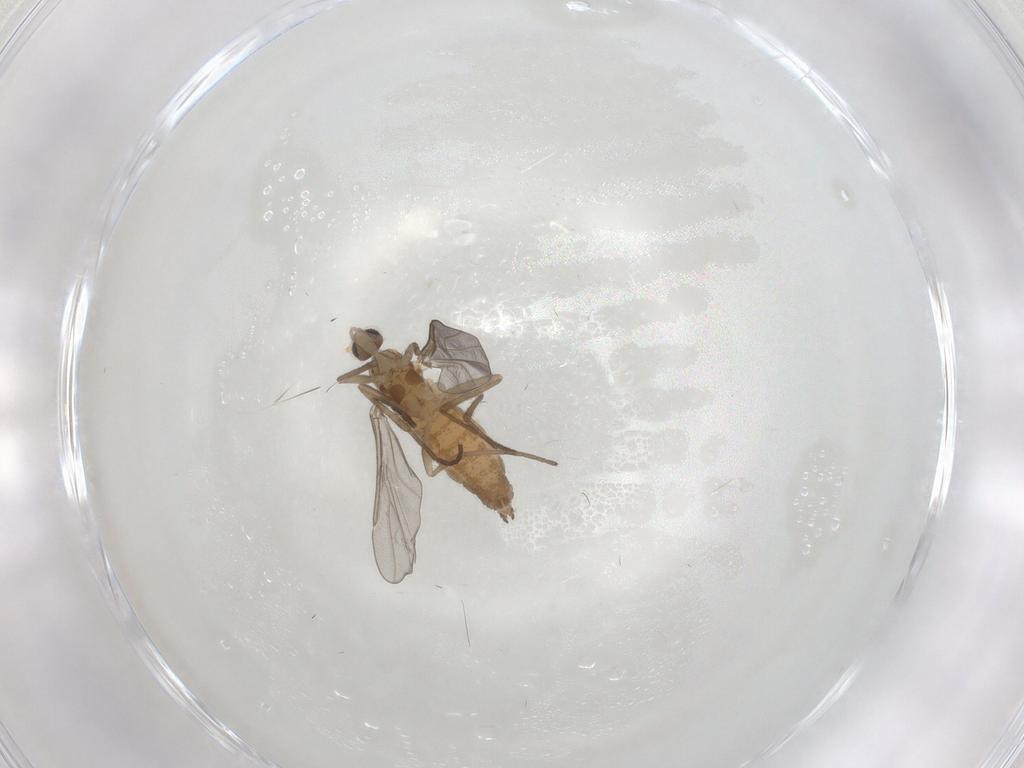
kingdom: Animalia
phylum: Arthropoda
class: Insecta
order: Diptera
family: Cecidomyiidae
